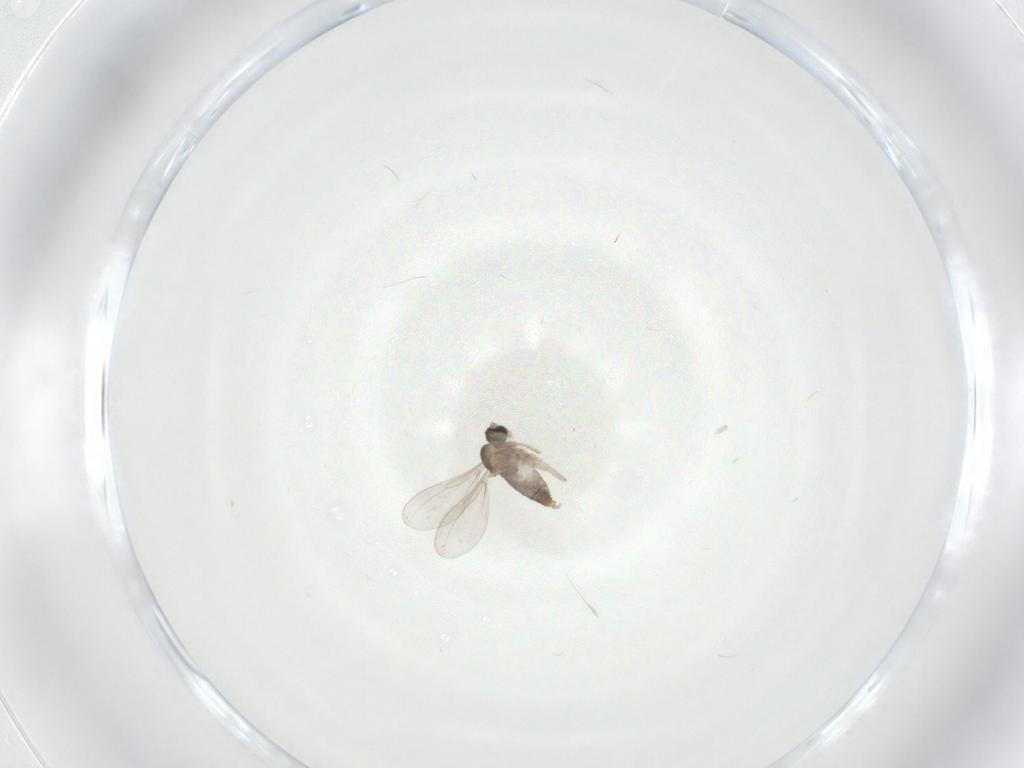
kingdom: Animalia
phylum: Arthropoda
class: Insecta
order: Diptera
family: Cecidomyiidae
